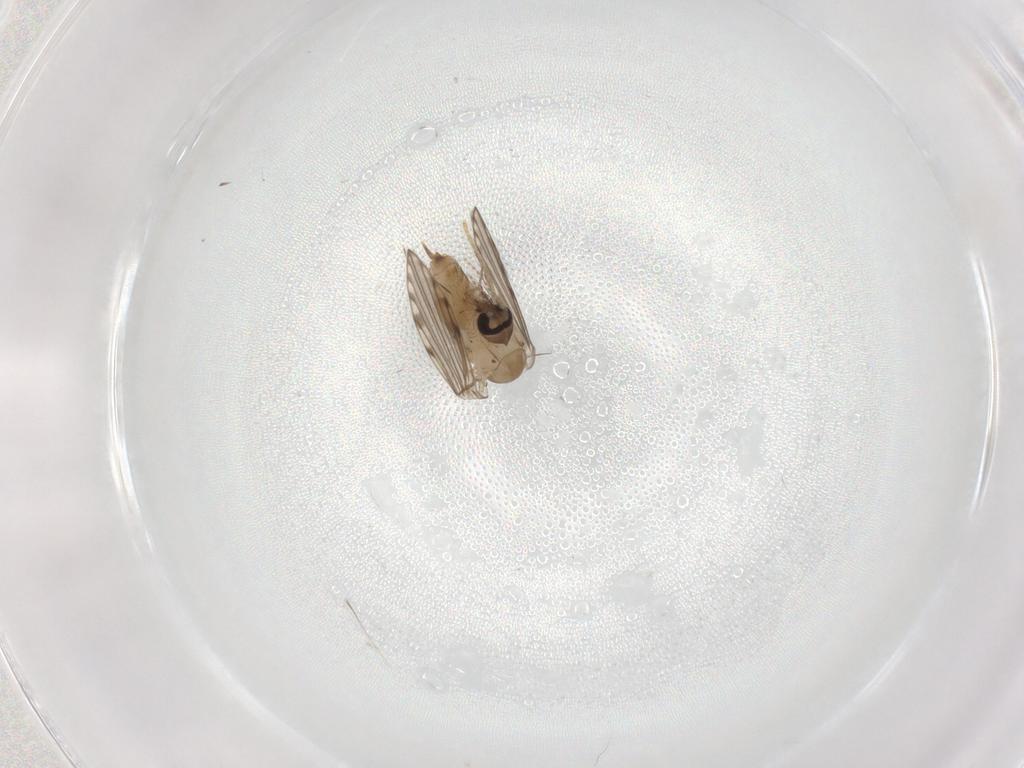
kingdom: Animalia
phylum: Arthropoda
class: Insecta
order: Diptera
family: Psychodidae
